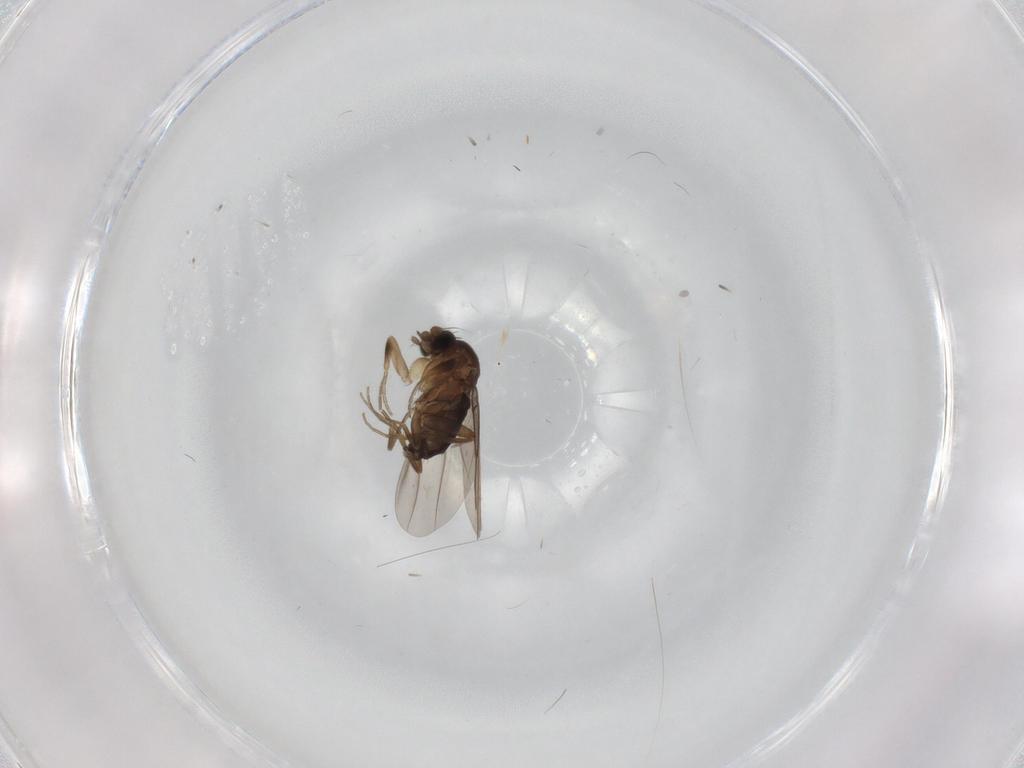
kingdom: Animalia
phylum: Arthropoda
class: Insecta
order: Diptera
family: Phoridae
